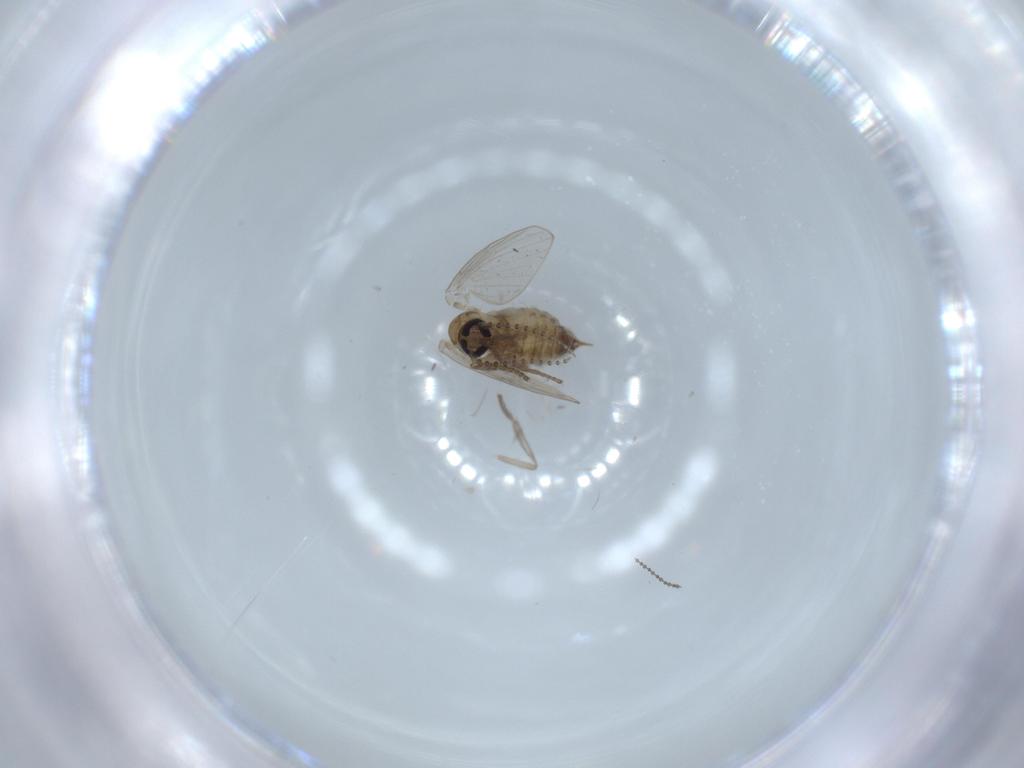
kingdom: Animalia
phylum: Arthropoda
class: Insecta
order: Diptera
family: Psychodidae
